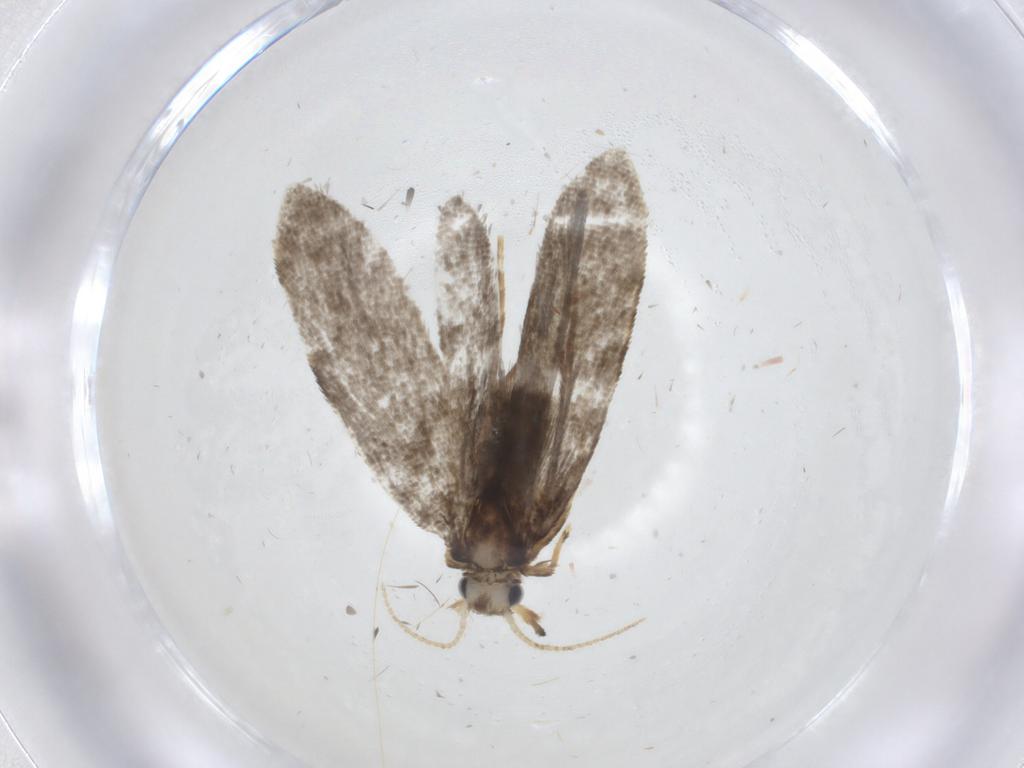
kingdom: Animalia
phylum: Arthropoda
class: Insecta
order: Lepidoptera
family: Psychidae
